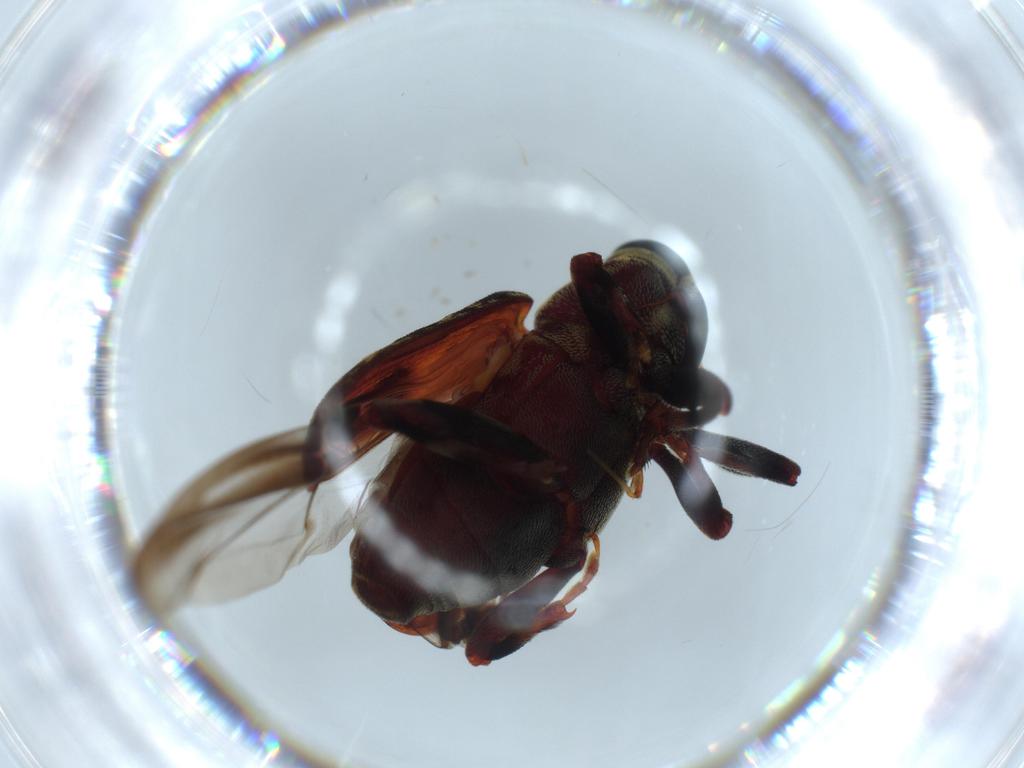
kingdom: Animalia
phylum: Arthropoda
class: Insecta
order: Coleoptera
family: Curculionidae
